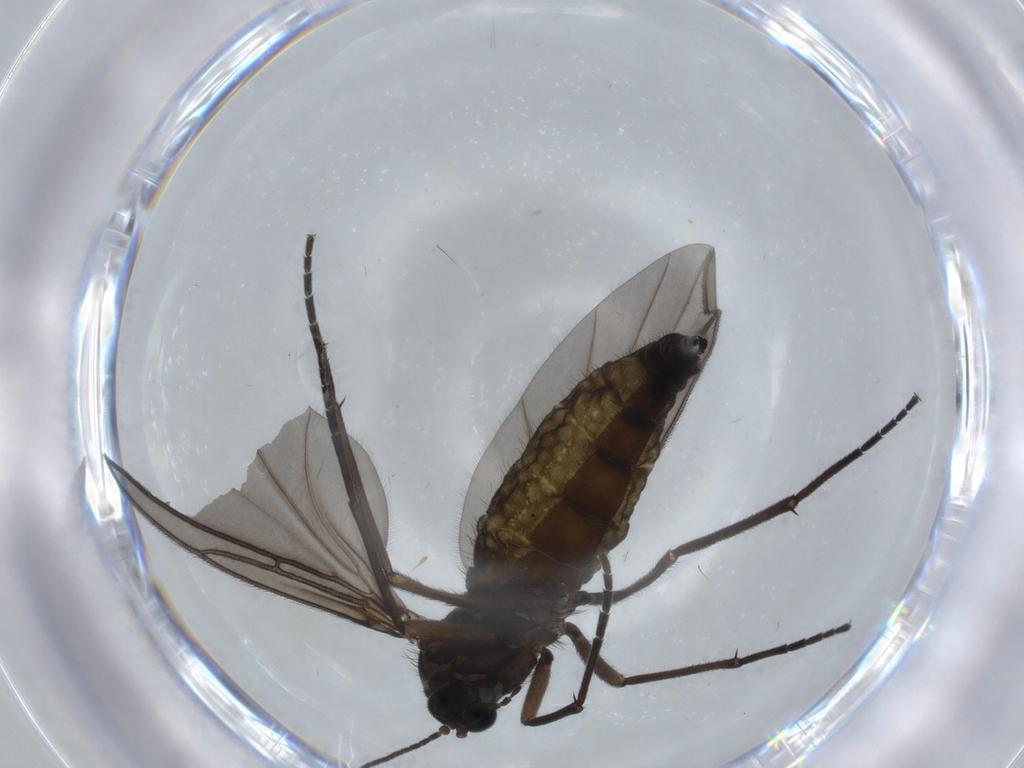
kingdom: Animalia
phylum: Arthropoda
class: Insecta
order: Diptera
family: Sciaridae
